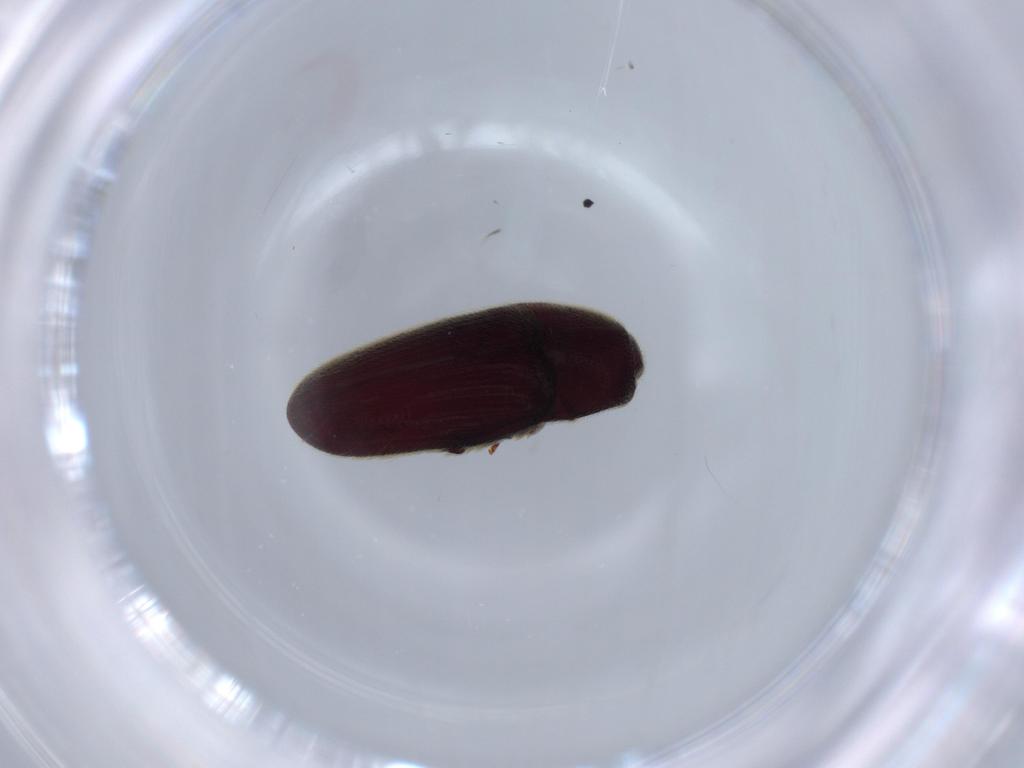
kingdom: Animalia
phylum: Arthropoda
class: Insecta
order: Coleoptera
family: Throscidae
